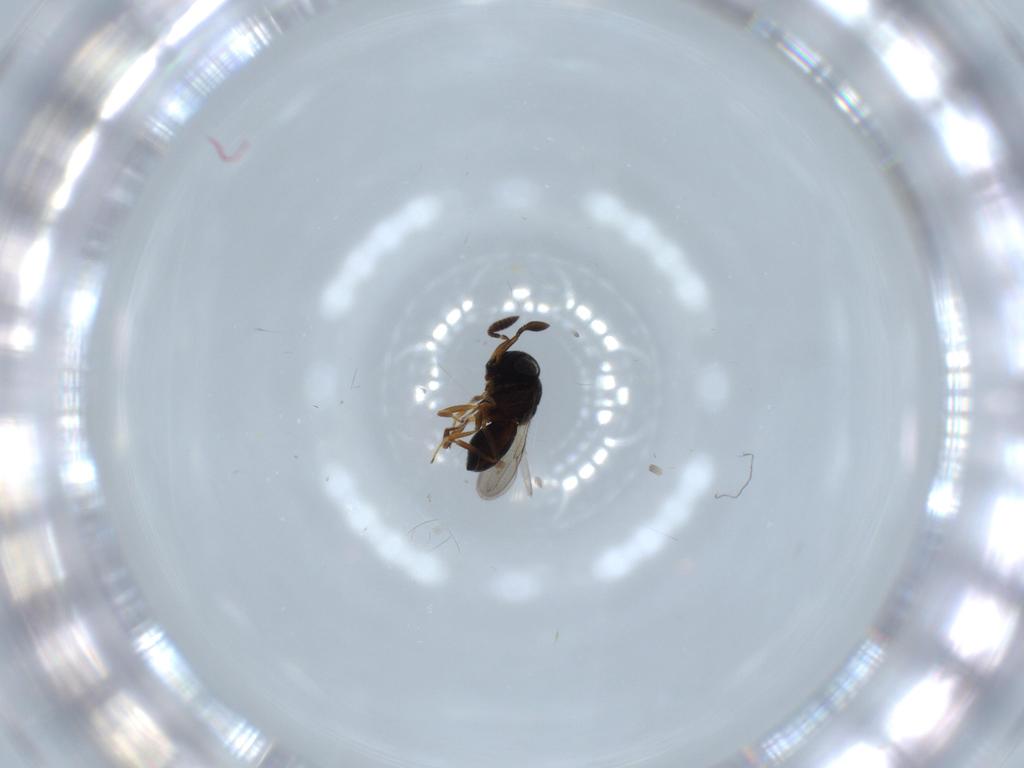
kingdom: Animalia
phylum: Arthropoda
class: Insecta
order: Hymenoptera
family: Scelionidae
